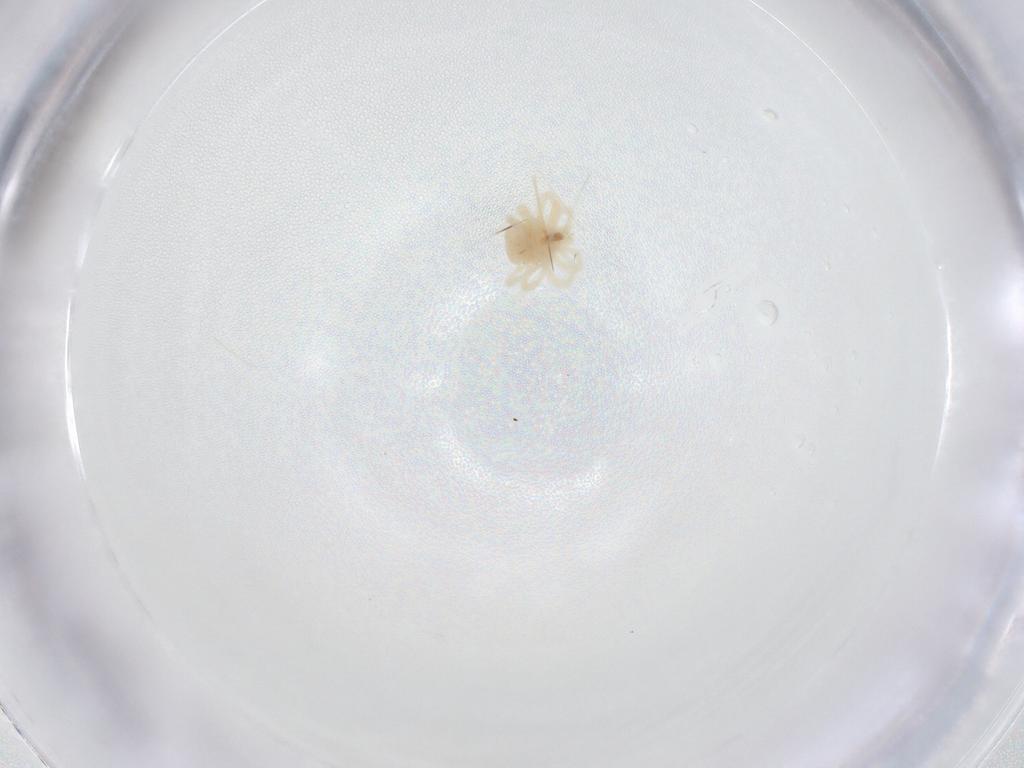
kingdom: Animalia
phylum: Arthropoda
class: Arachnida
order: Trombidiformes
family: Anystidae
